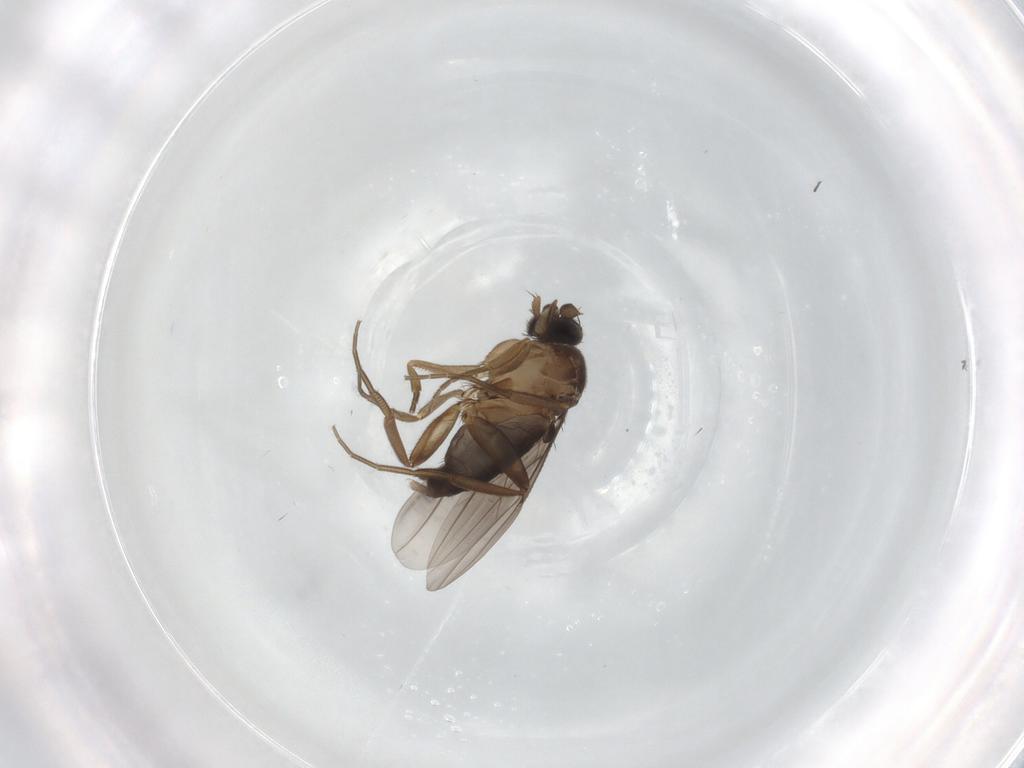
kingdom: Animalia
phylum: Arthropoda
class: Insecta
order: Diptera
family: Phoridae
